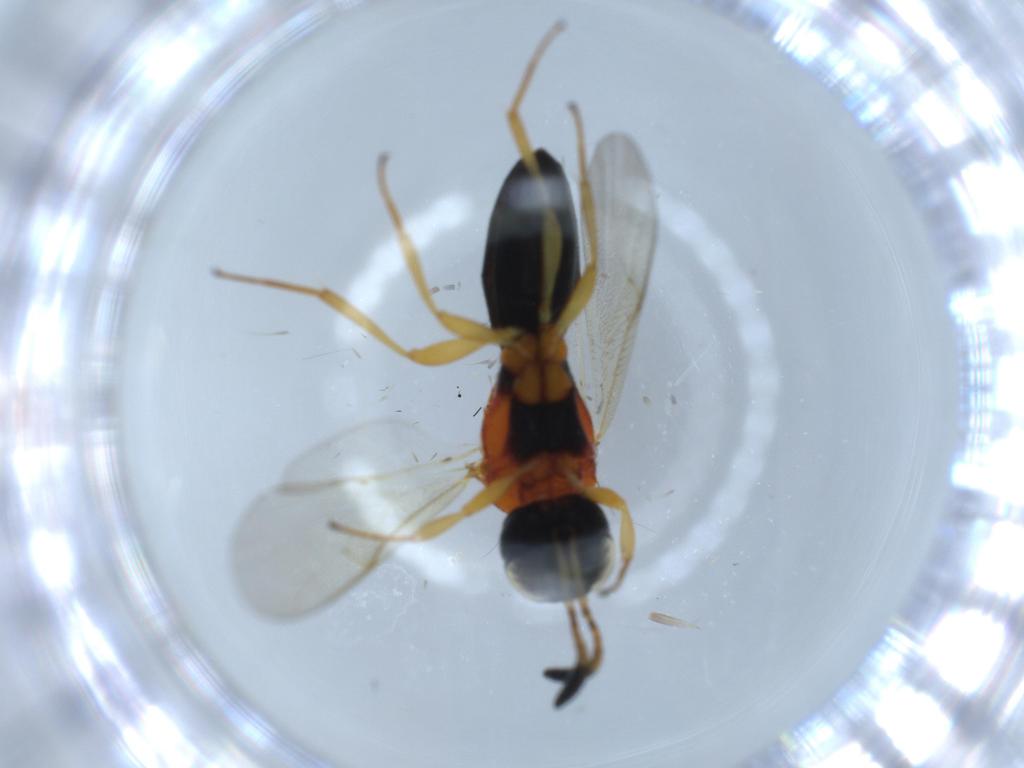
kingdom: Animalia
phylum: Arthropoda
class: Insecta
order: Hymenoptera
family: Scelionidae
